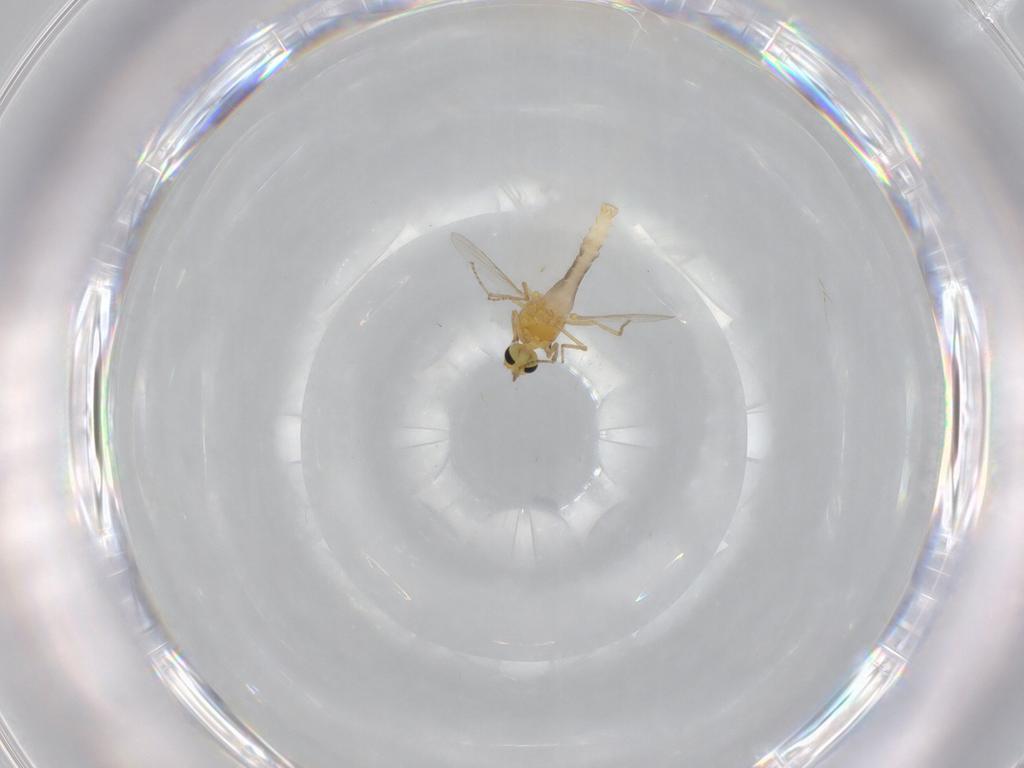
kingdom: Animalia
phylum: Arthropoda
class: Insecta
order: Diptera
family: Ceratopogonidae
